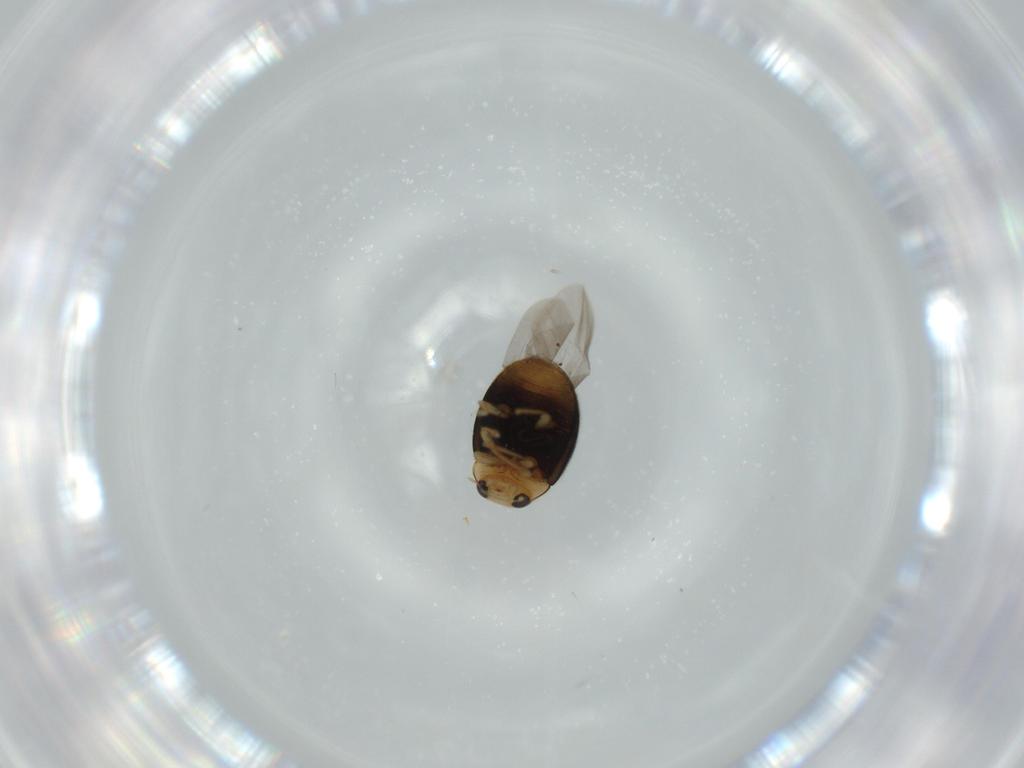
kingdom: Animalia
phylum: Arthropoda
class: Insecta
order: Coleoptera
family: Coccinellidae
